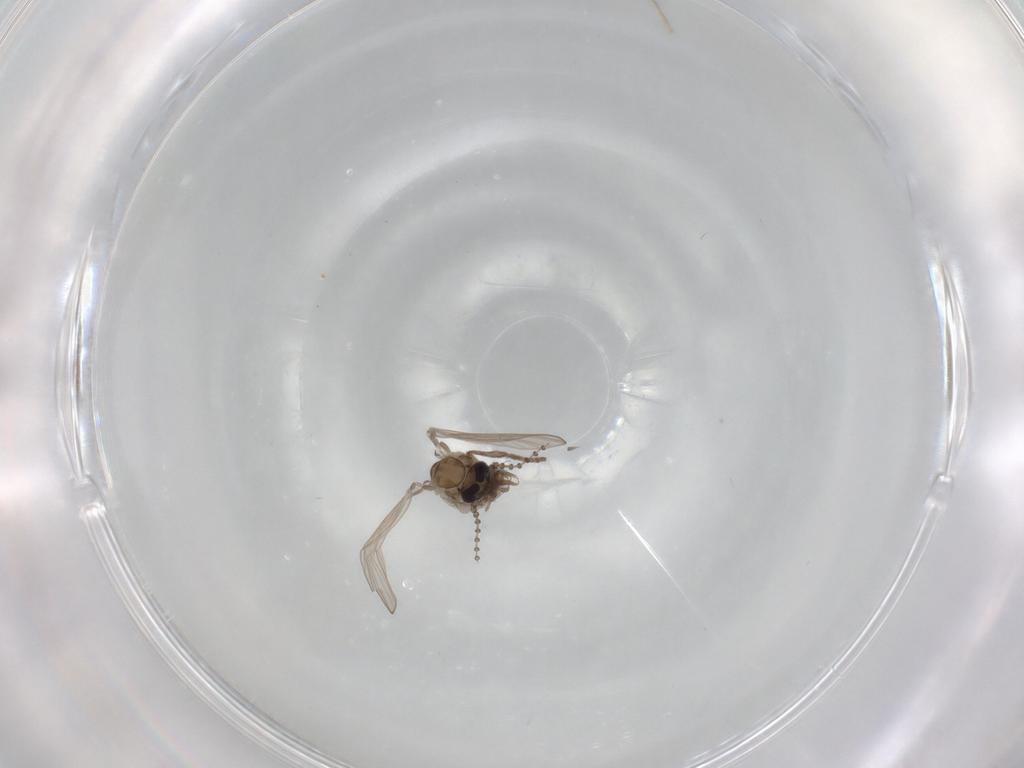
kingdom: Animalia
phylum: Arthropoda
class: Insecta
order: Diptera
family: Psychodidae
